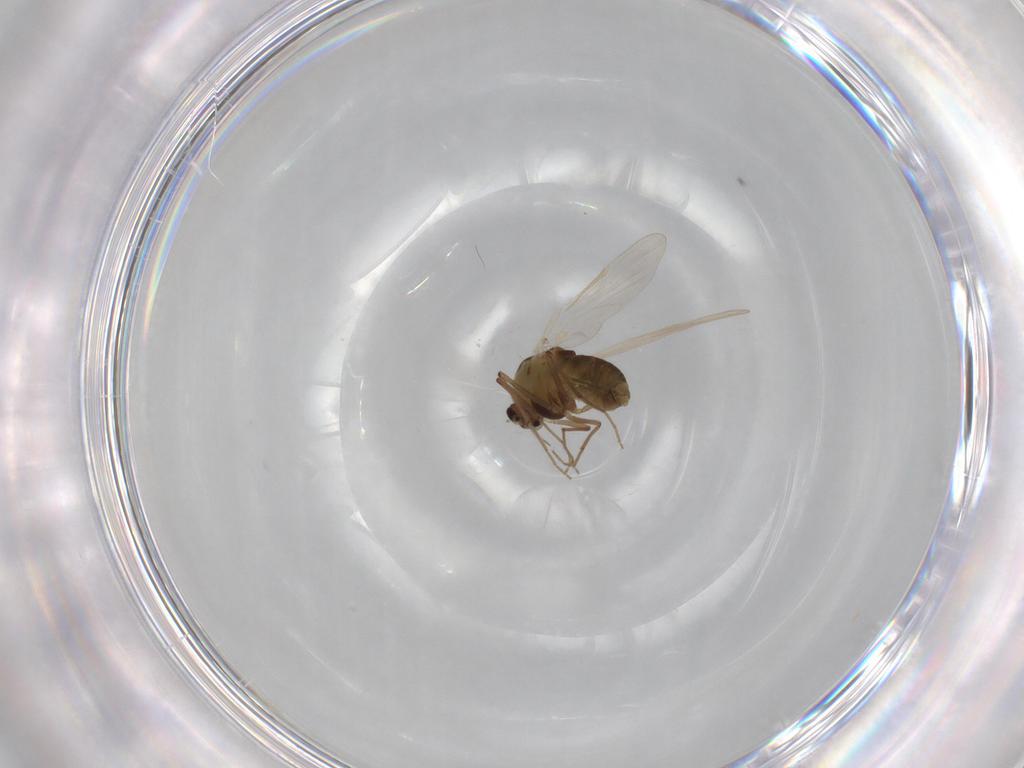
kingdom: Animalia
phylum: Arthropoda
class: Insecta
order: Diptera
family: Chironomidae
